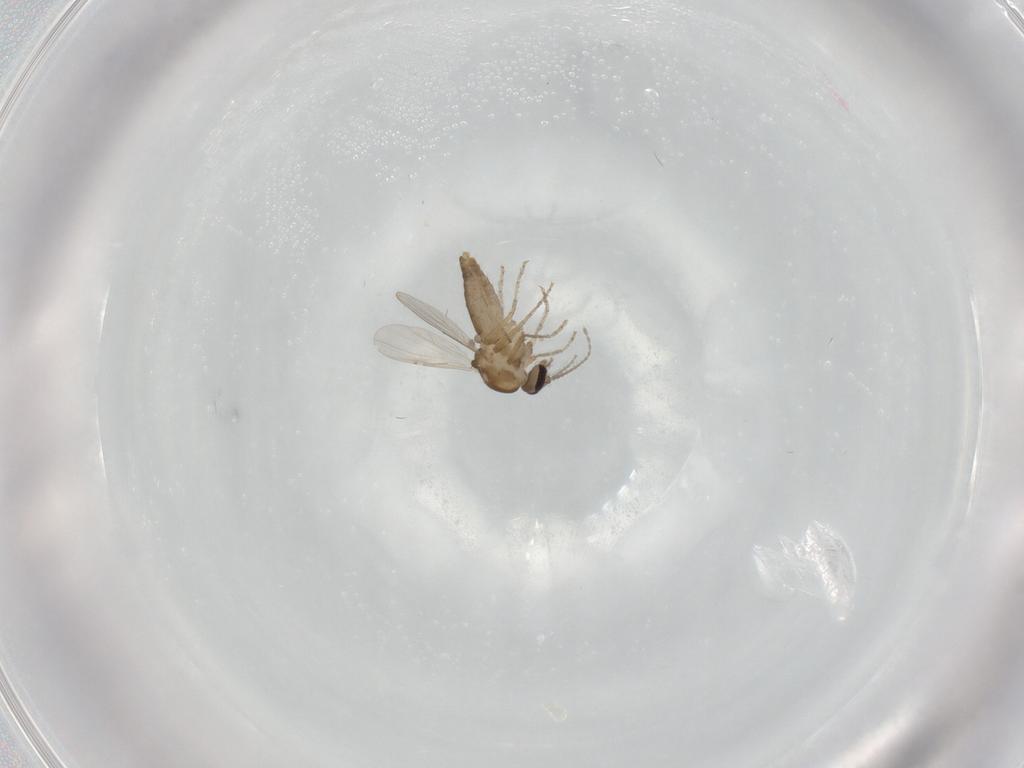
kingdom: Animalia
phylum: Arthropoda
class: Insecta
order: Diptera
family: Ceratopogonidae
